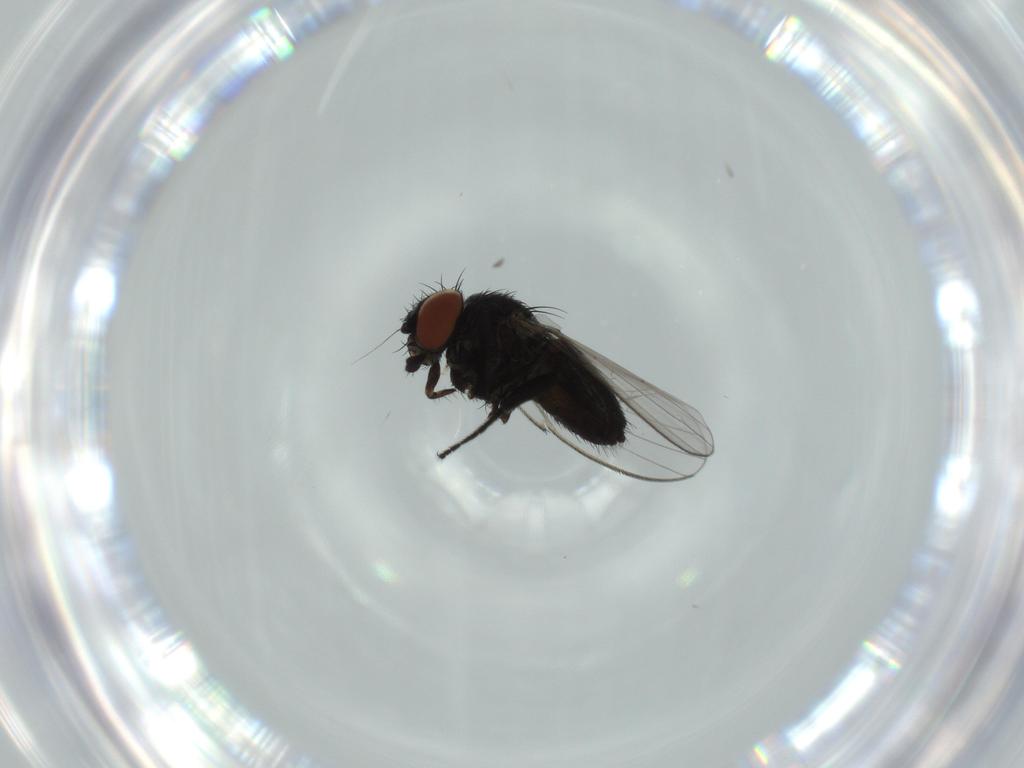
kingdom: Animalia
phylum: Arthropoda
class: Insecta
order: Diptera
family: Milichiidae
